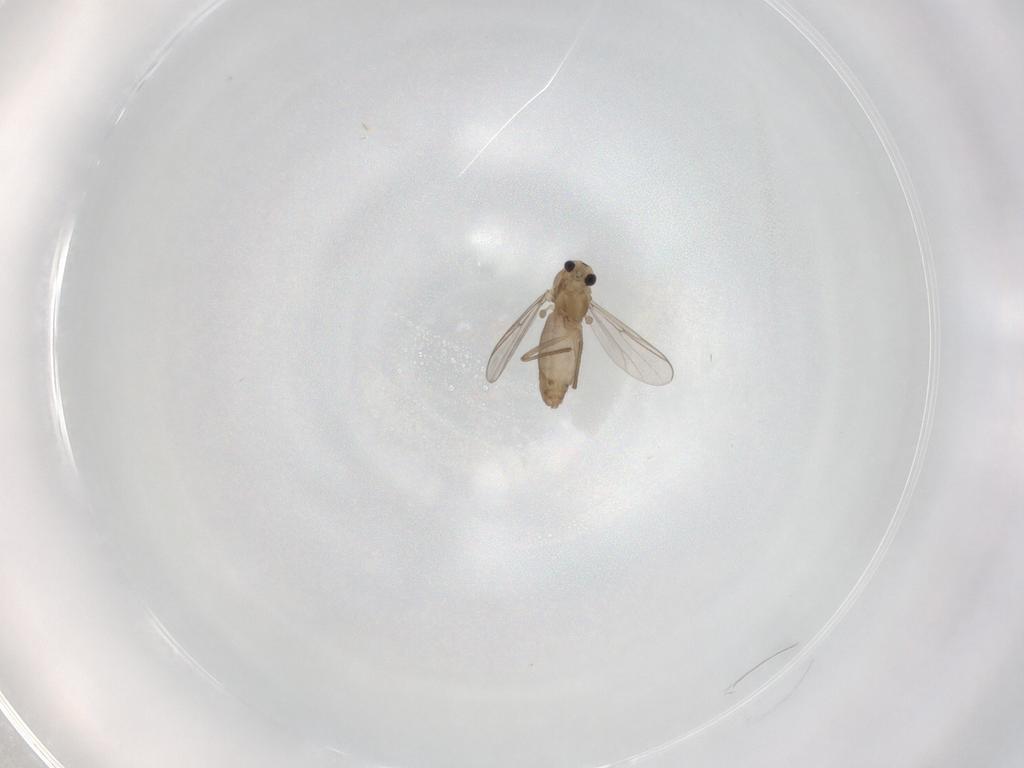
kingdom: Animalia
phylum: Arthropoda
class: Insecta
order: Diptera
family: Chironomidae
